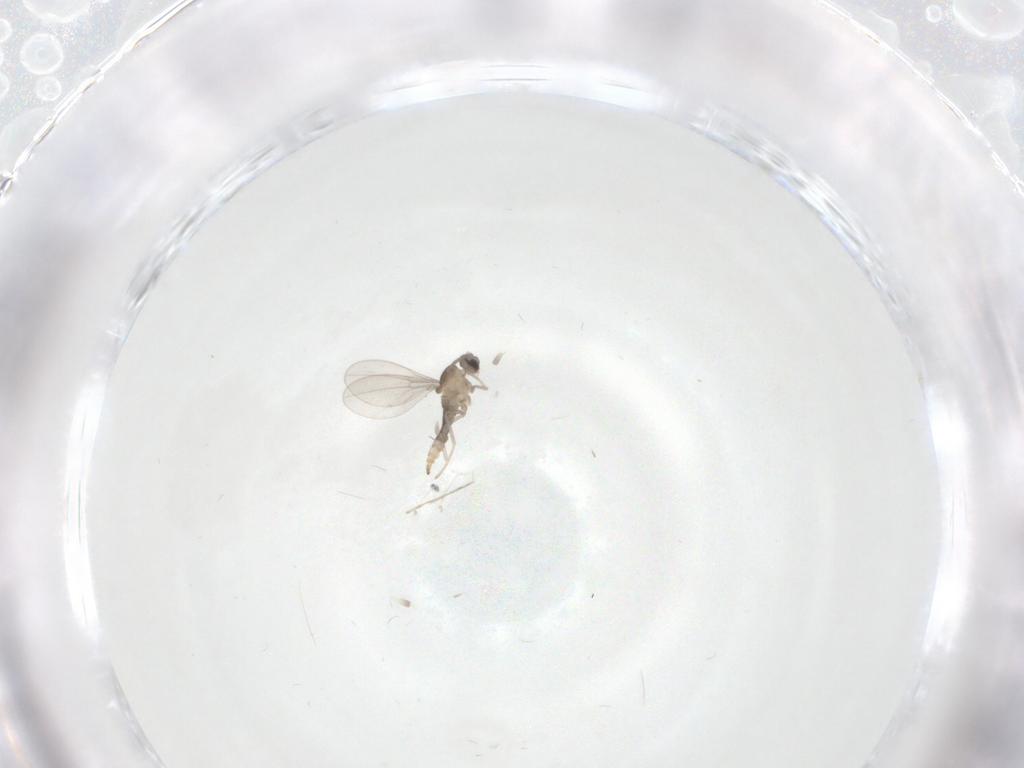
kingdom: Animalia
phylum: Arthropoda
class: Insecta
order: Diptera
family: Cecidomyiidae
